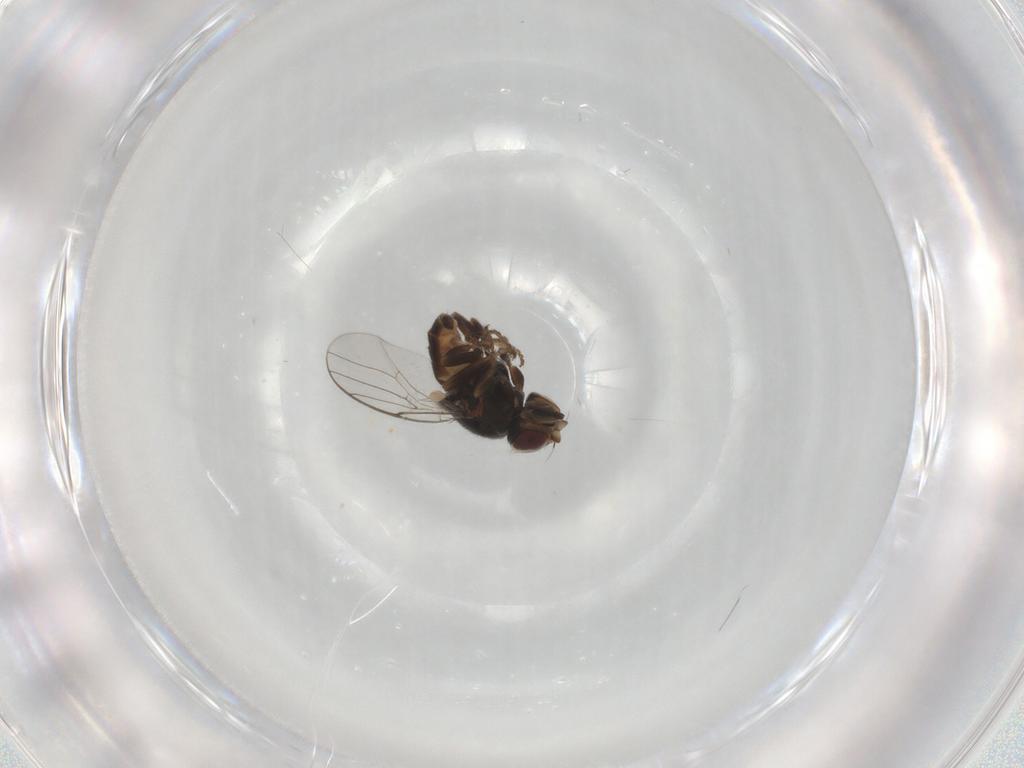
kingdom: Animalia
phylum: Arthropoda
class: Insecta
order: Diptera
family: Chloropidae
